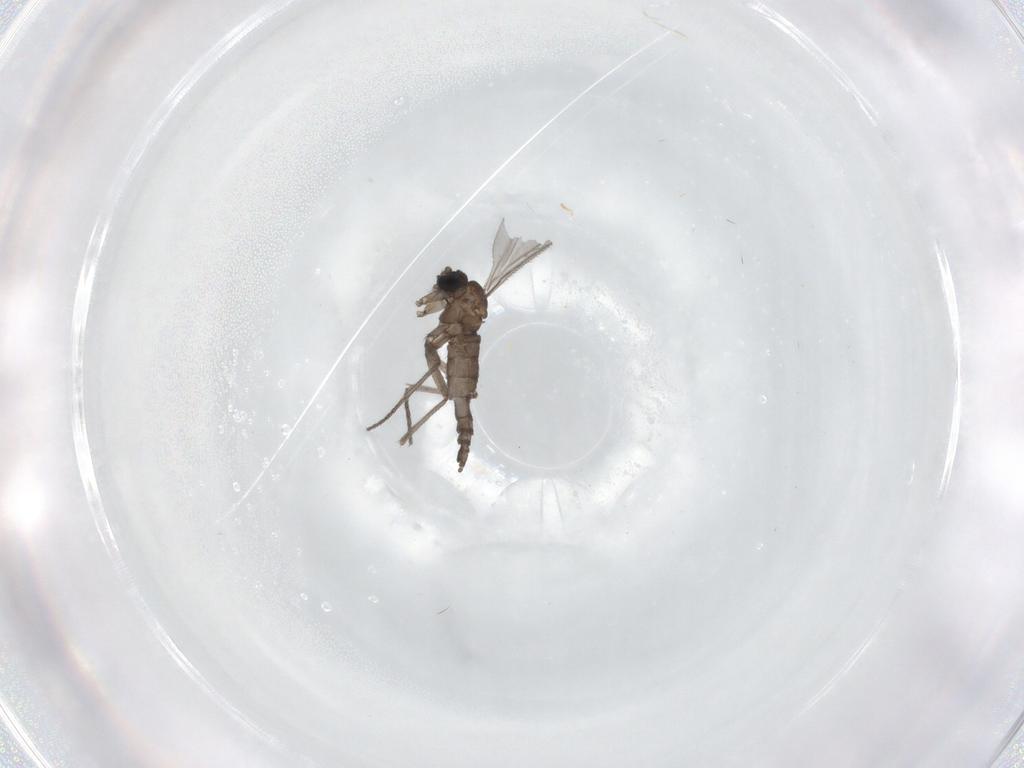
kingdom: Animalia
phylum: Arthropoda
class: Insecta
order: Diptera
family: Sciaridae
